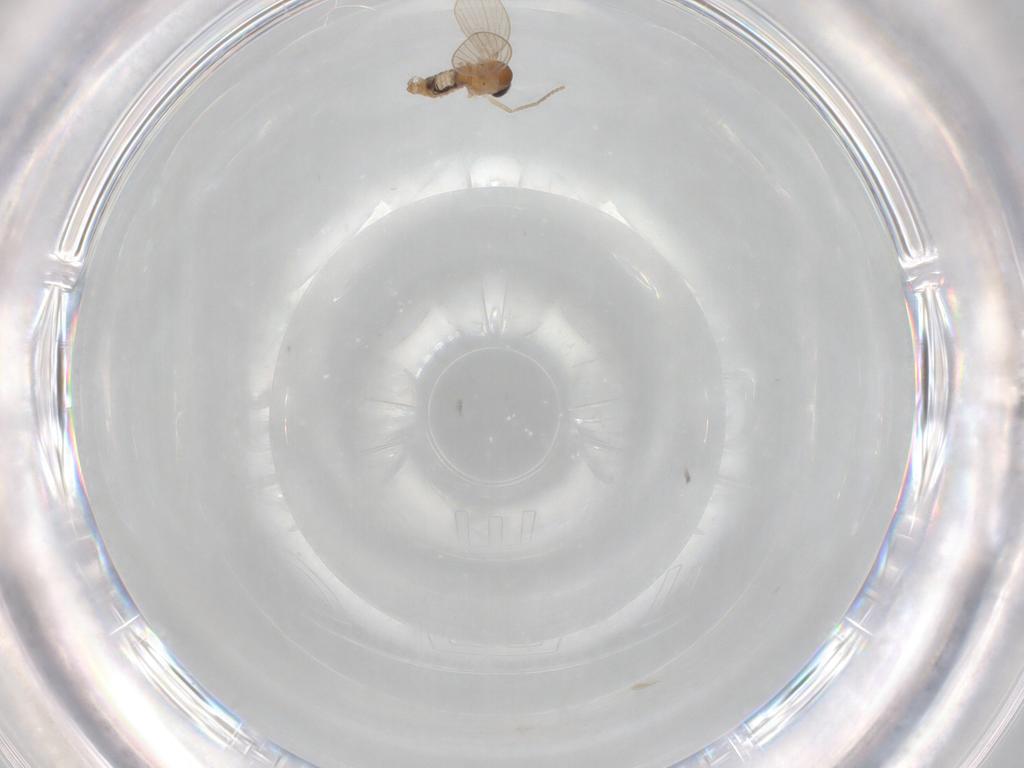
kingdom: Animalia
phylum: Arthropoda
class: Insecta
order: Diptera
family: Psychodidae
